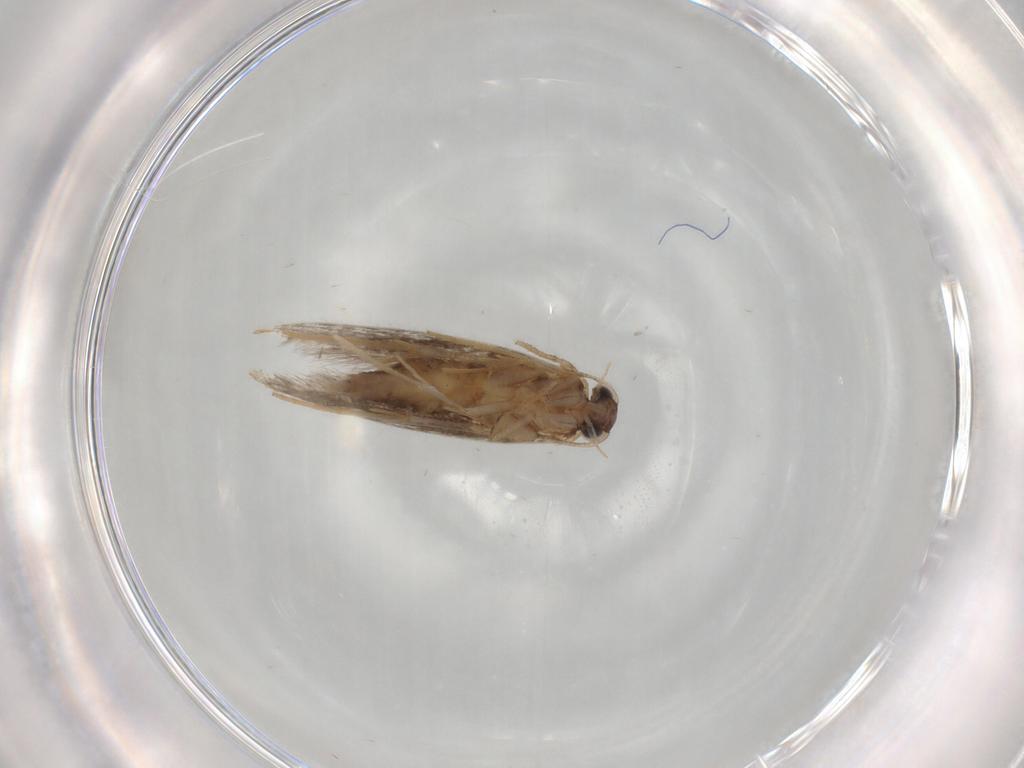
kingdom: Animalia
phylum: Arthropoda
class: Insecta
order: Lepidoptera
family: Tineidae
